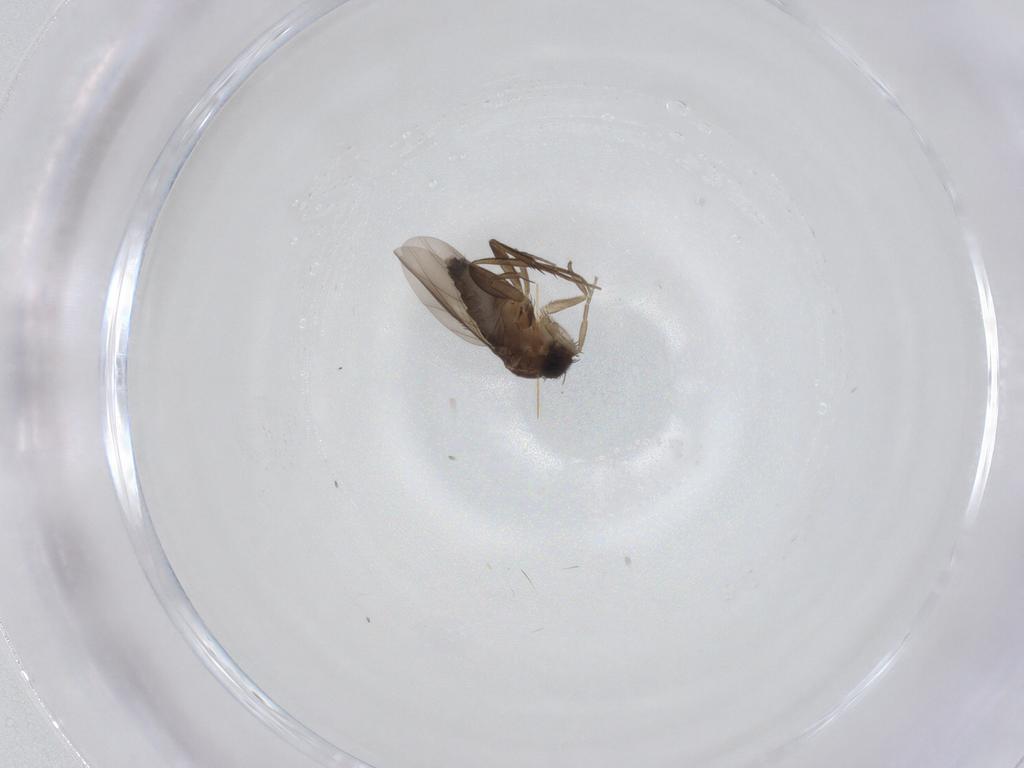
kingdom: Animalia
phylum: Arthropoda
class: Insecta
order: Diptera
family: Phoridae
